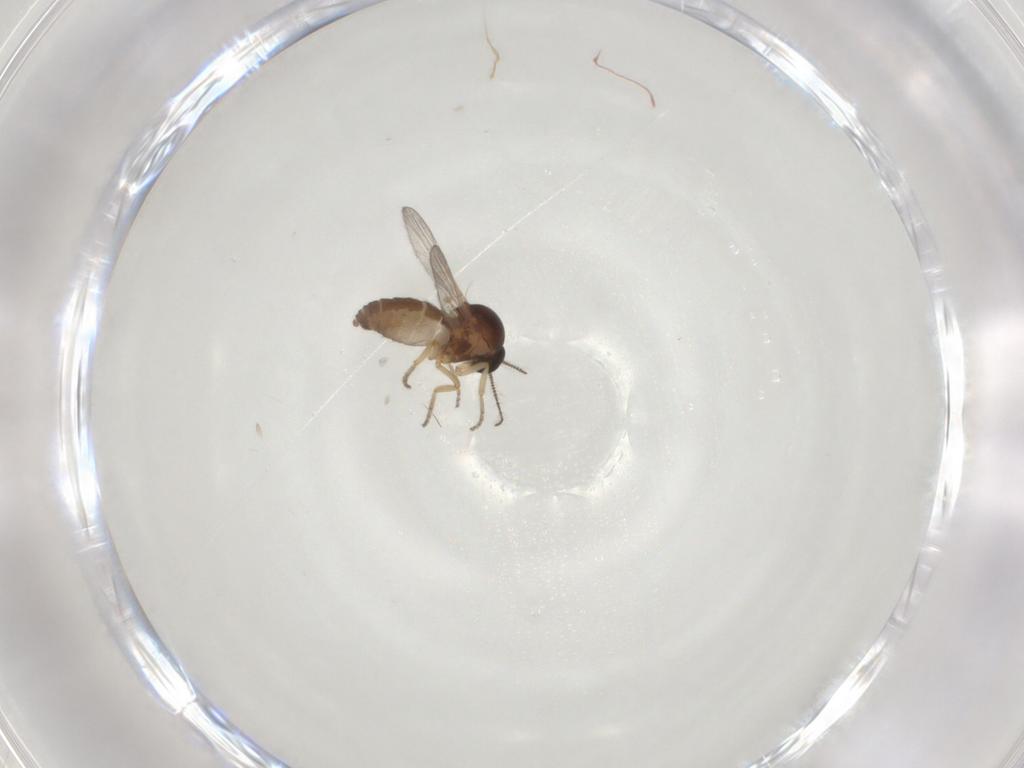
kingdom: Animalia
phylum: Arthropoda
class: Insecta
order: Diptera
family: Ceratopogonidae
